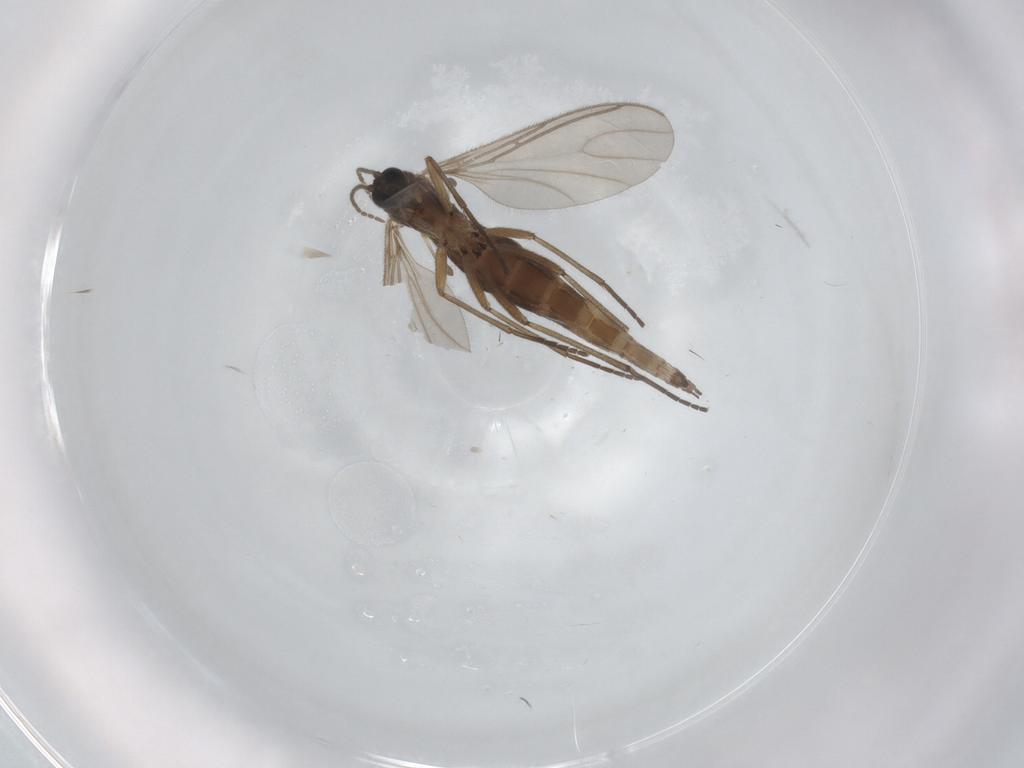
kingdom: Animalia
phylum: Arthropoda
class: Insecta
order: Diptera
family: Sciaridae
